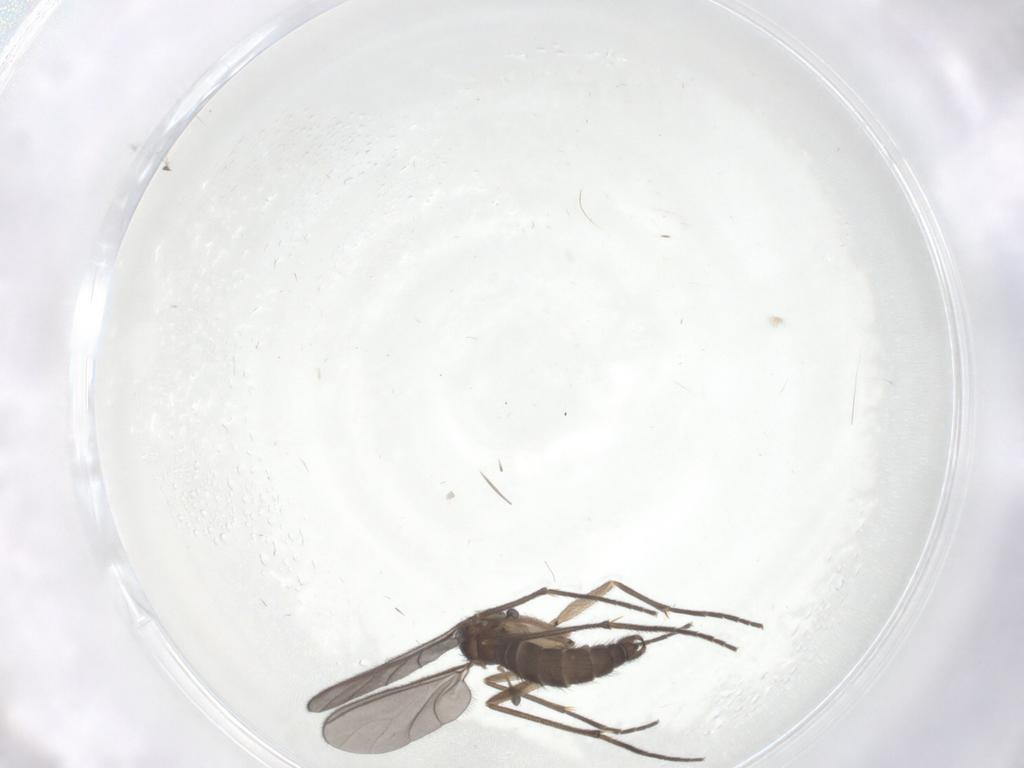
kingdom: Animalia
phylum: Arthropoda
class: Insecta
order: Diptera
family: Sciaridae
